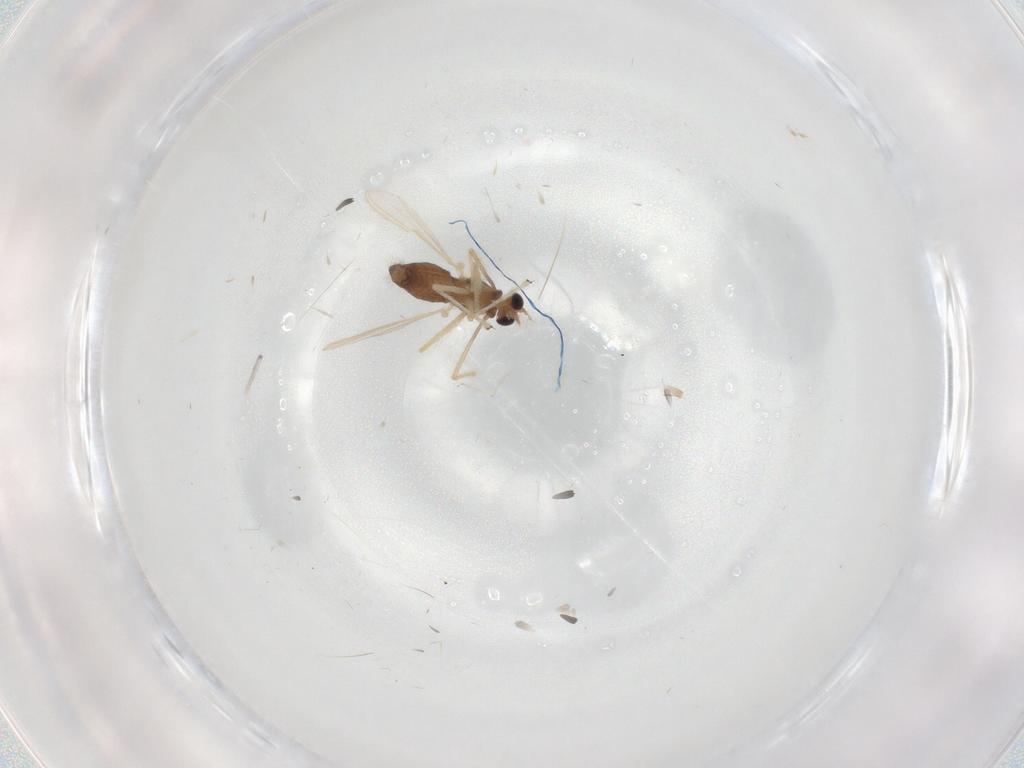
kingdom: Animalia
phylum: Arthropoda
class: Insecta
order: Diptera
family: Chironomidae
